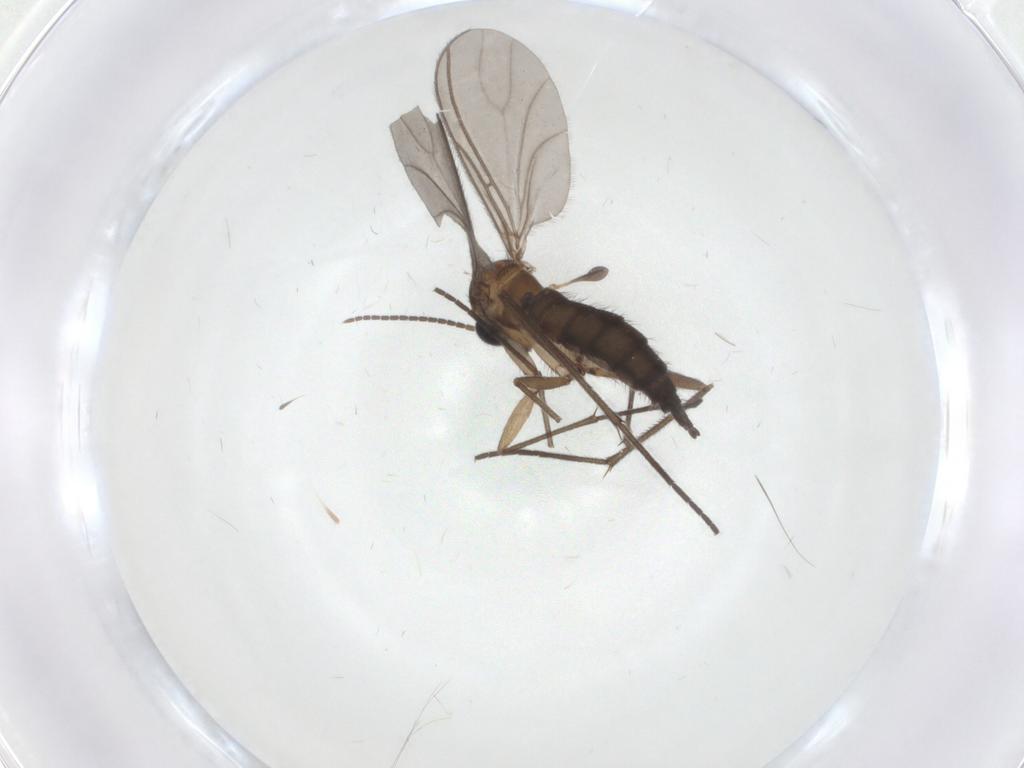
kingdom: Animalia
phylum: Arthropoda
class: Insecta
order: Diptera
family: Sciaridae
